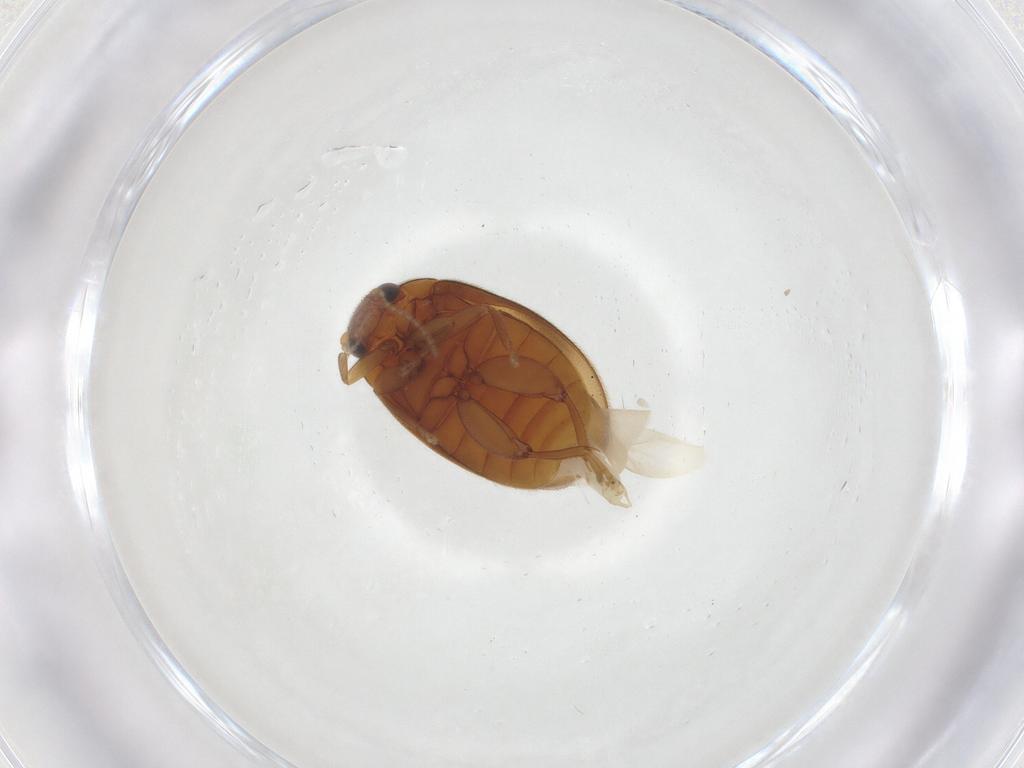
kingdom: Animalia
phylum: Arthropoda
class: Insecta
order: Coleoptera
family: Scirtidae
